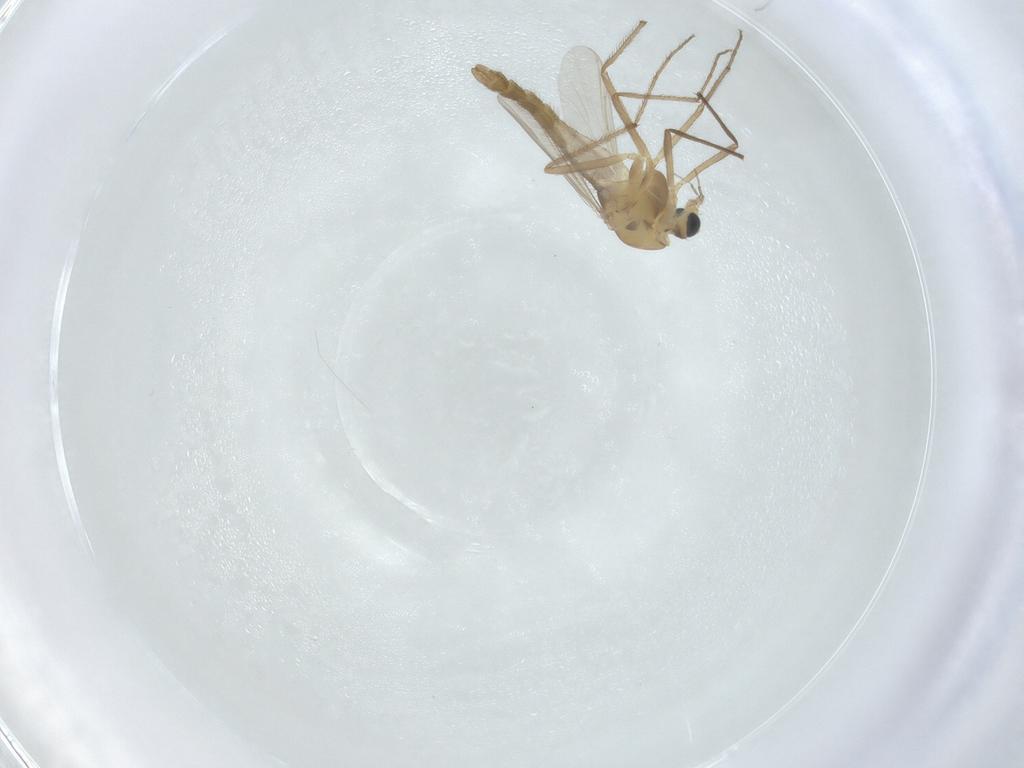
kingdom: Animalia
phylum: Arthropoda
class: Insecta
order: Diptera
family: Chironomidae
